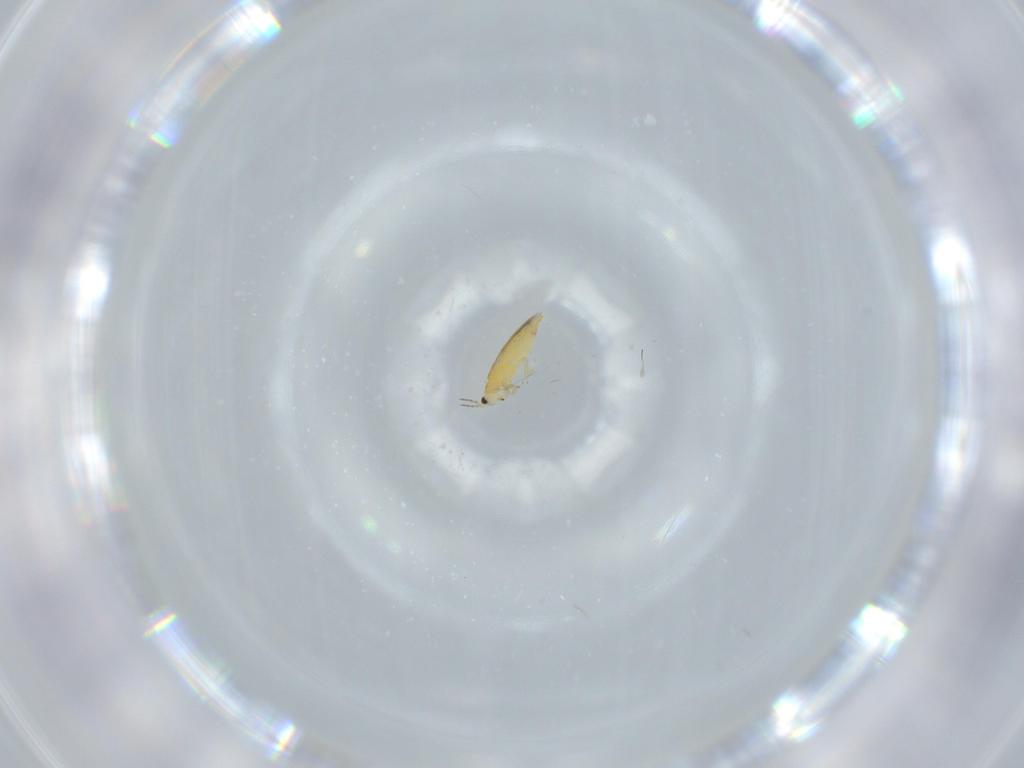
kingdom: Animalia
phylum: Arthropoda
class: Insecta
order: Thysanoptera
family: Thripidae
